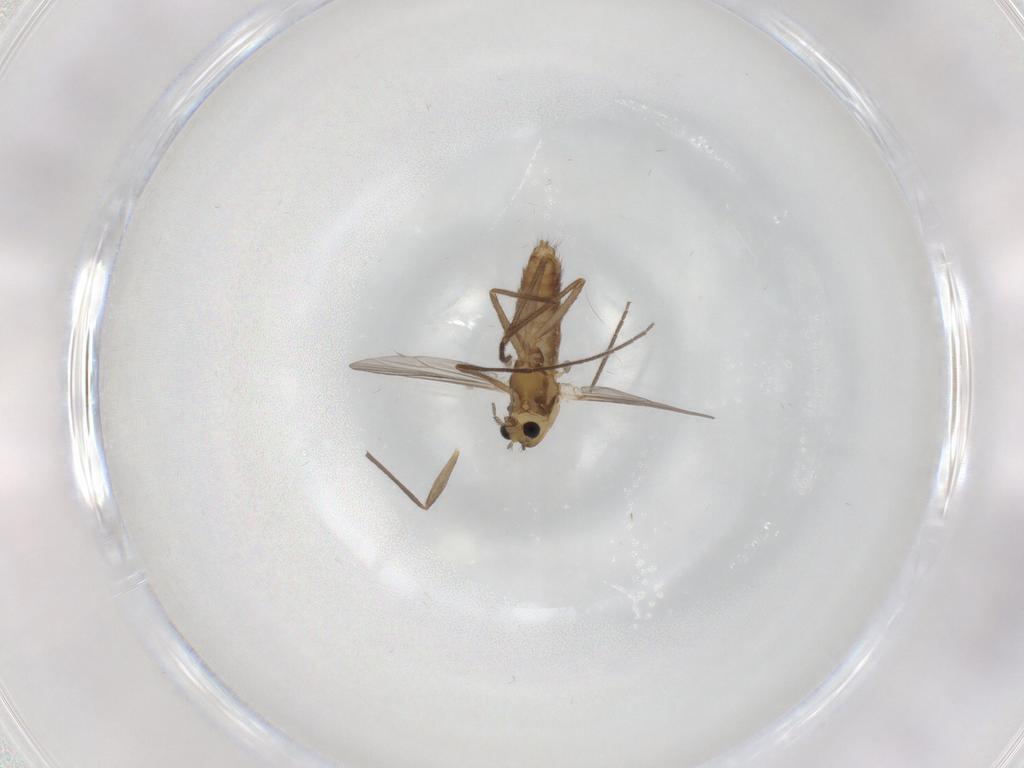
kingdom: Animalia
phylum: Arthropoda
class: Insecta
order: Diptera
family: Chironomidae
